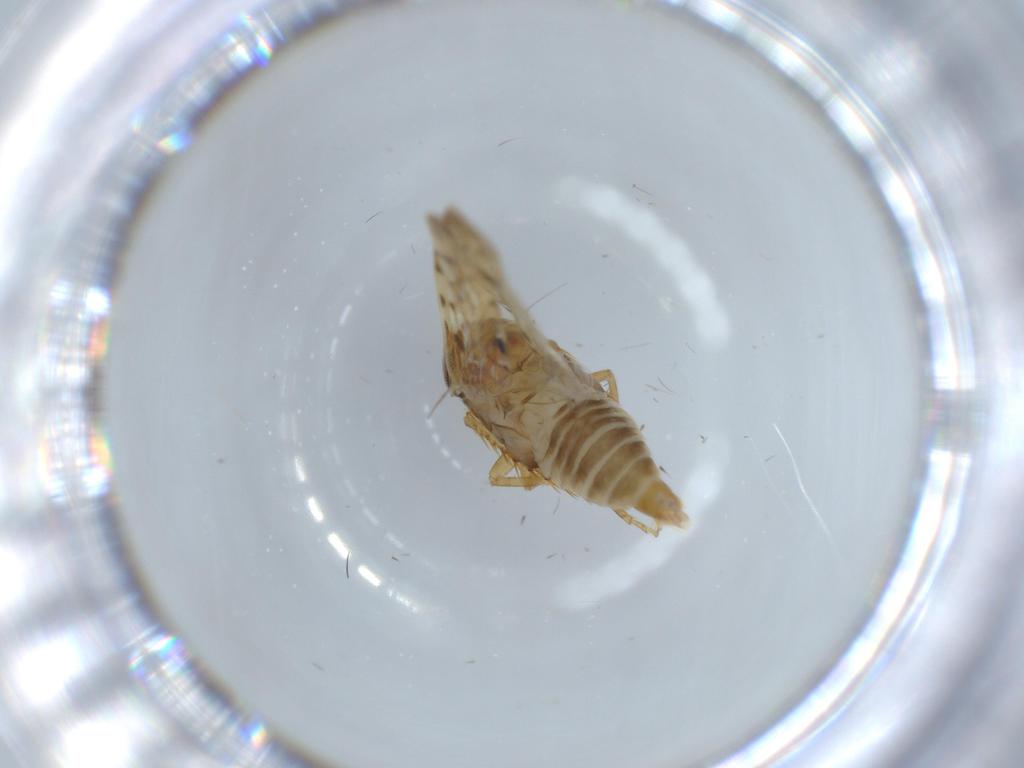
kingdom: Animalia
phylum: Arthropoda
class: Insecta
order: Hemiptera
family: Cicadellidae
